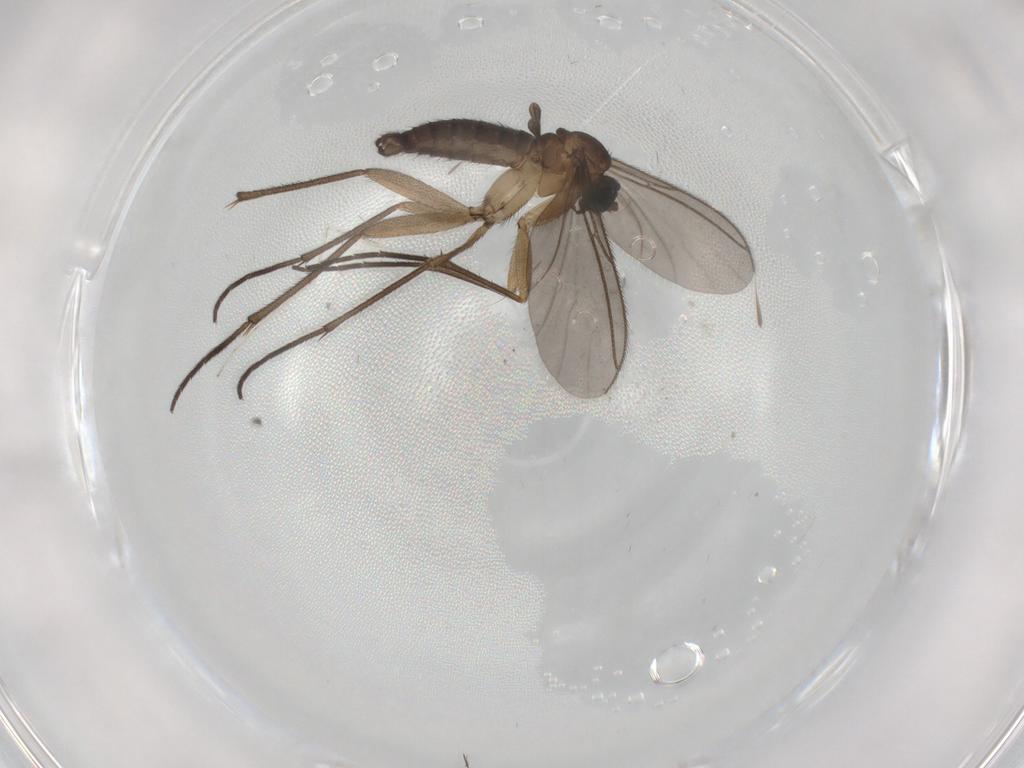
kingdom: Animalia
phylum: Arthropoda
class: Insecta
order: Diptera
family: Cecidomyiidae
